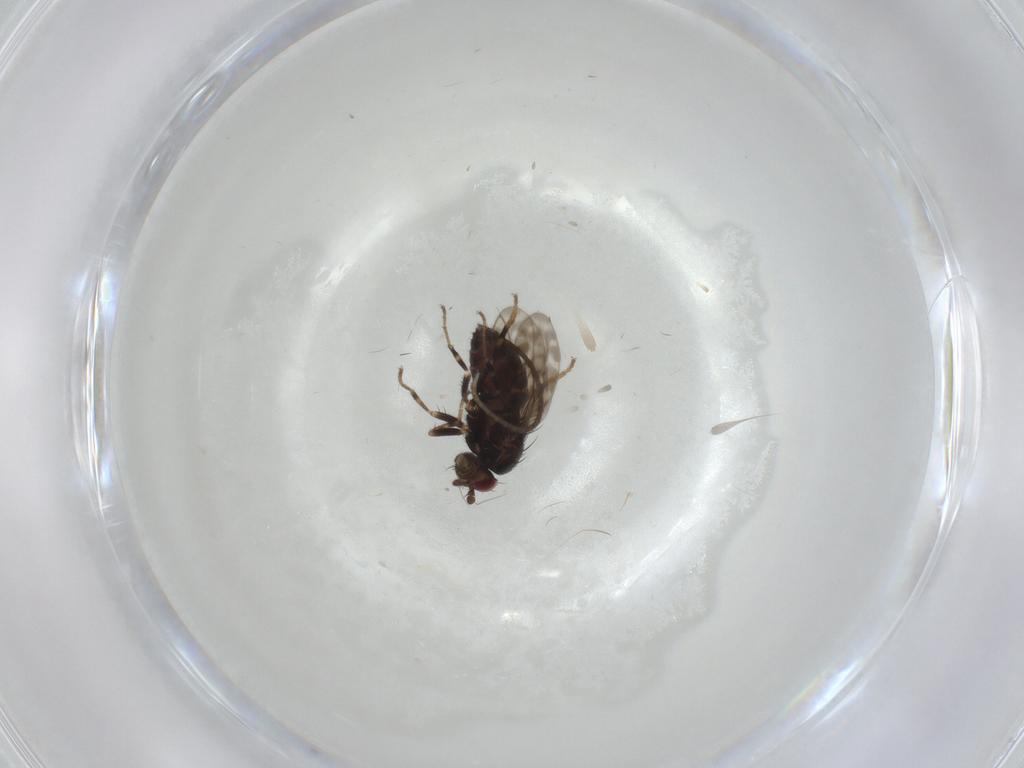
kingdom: Animalia
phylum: Arthropoda
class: Insecta
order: Diptera
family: Sphaeroceridae
